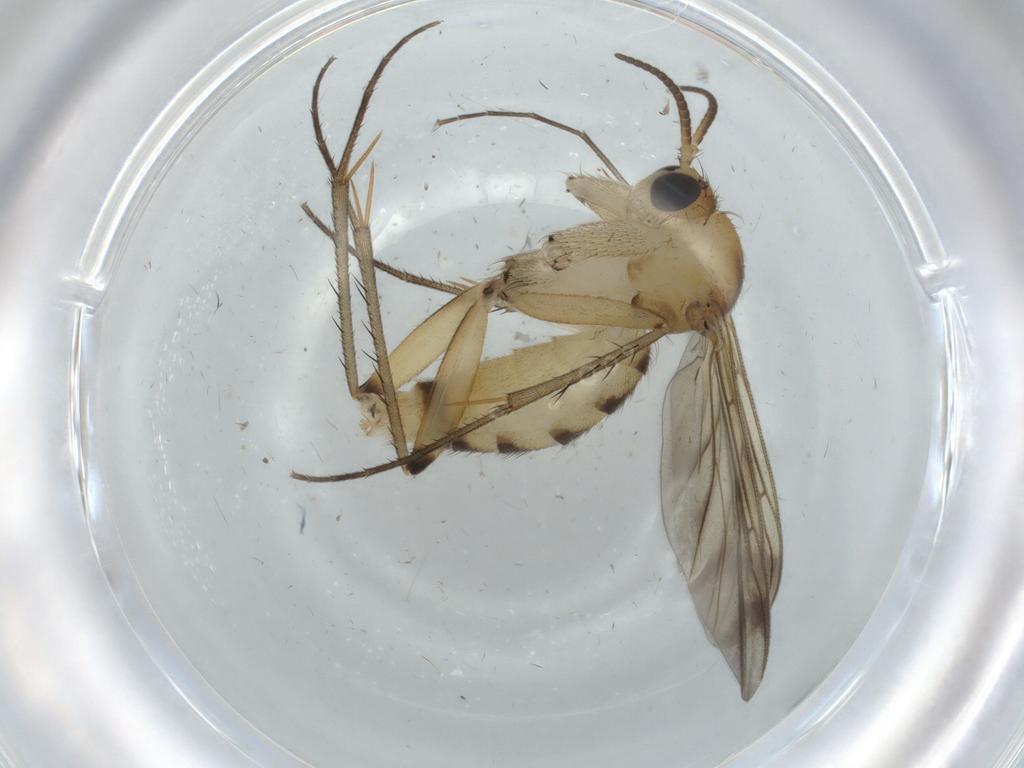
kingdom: Animalia
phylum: Arthropoda
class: Insecta
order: Diptera
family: Mycetophilidae
